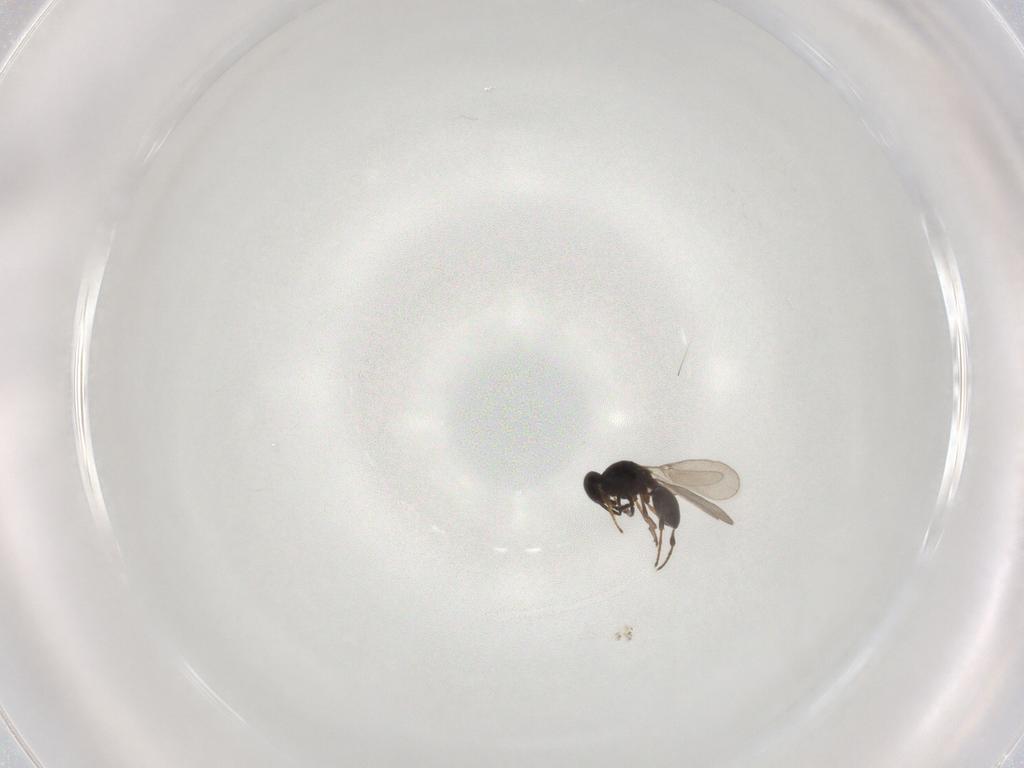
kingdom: Animalia
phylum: Arthropoda
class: Insecta
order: Hymenoptera
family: Platygastridae
